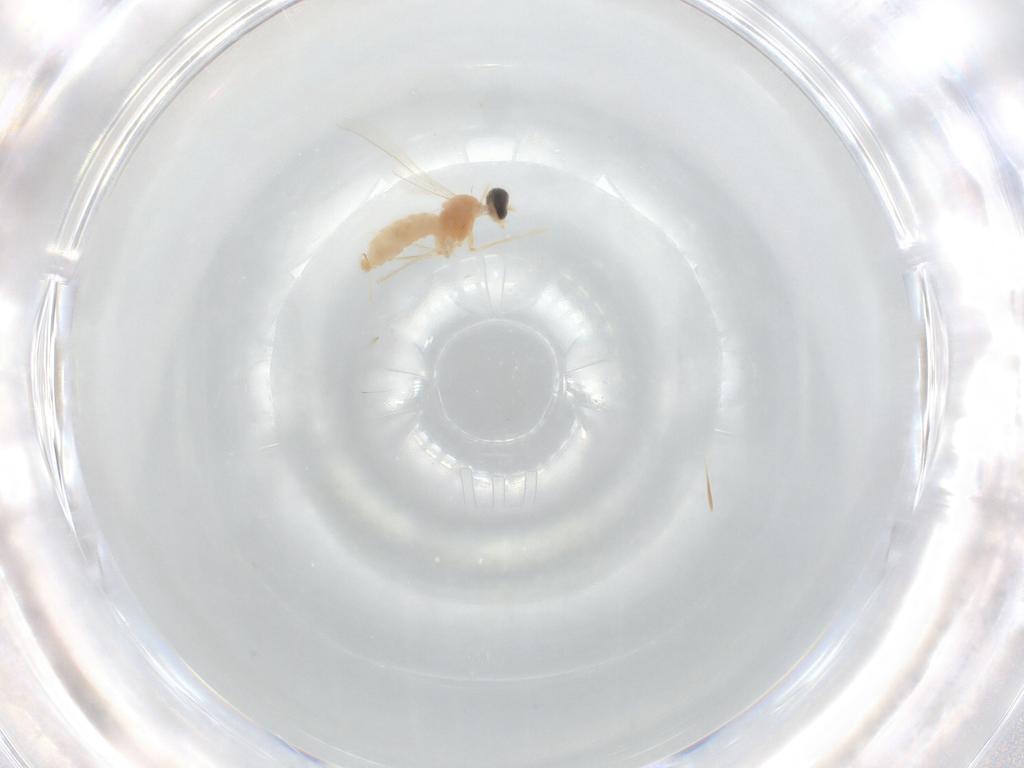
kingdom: Animalia
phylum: Arthropoda
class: Insecta
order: Diptera
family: Cecidomyiidae
